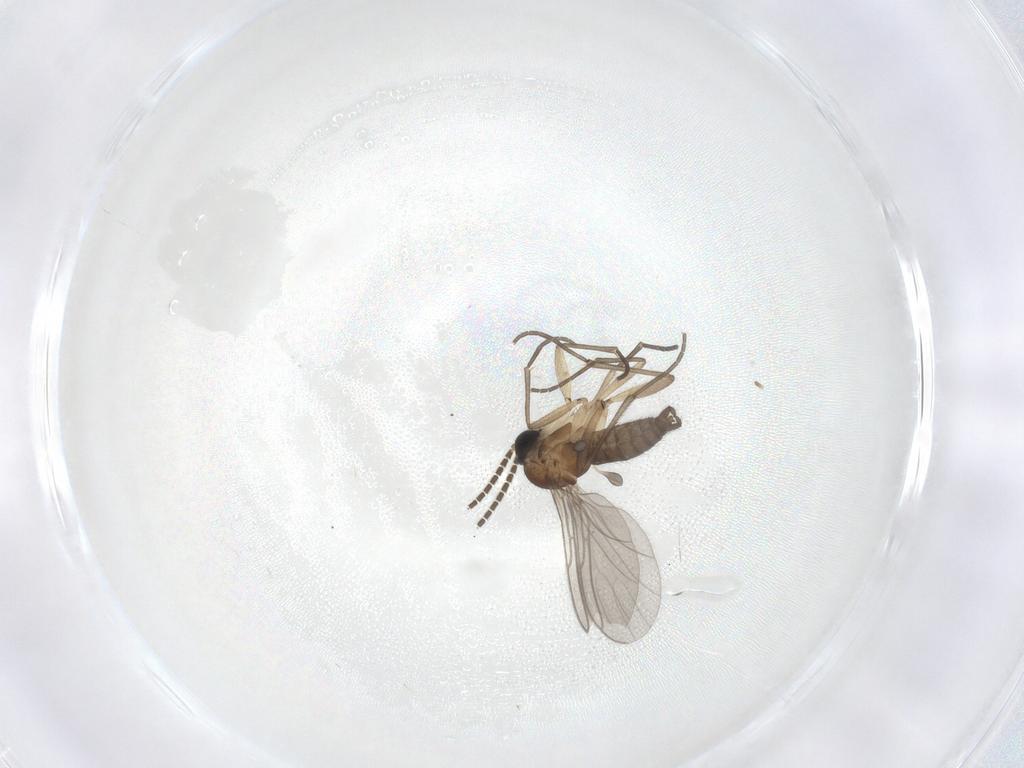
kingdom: Animalia
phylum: Arthropoda
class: Insecta
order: Diptera
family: Sciaridae
